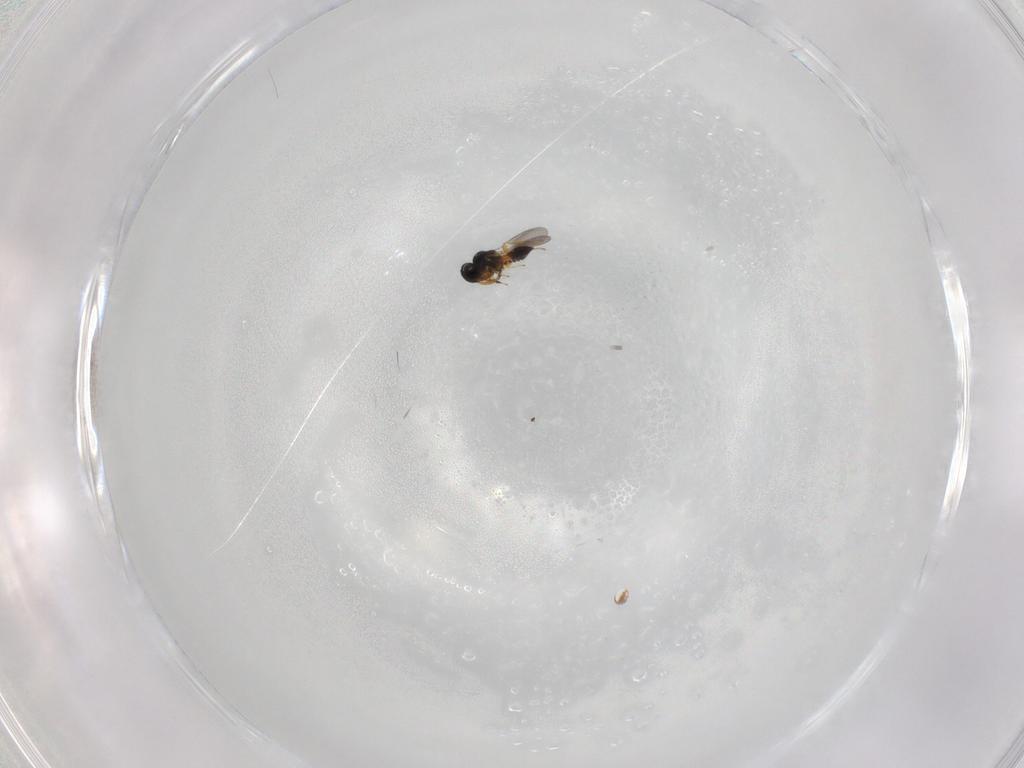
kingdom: Animalia
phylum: Arthropoda
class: Insecta
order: Hymenoptera
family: Platygastridae
